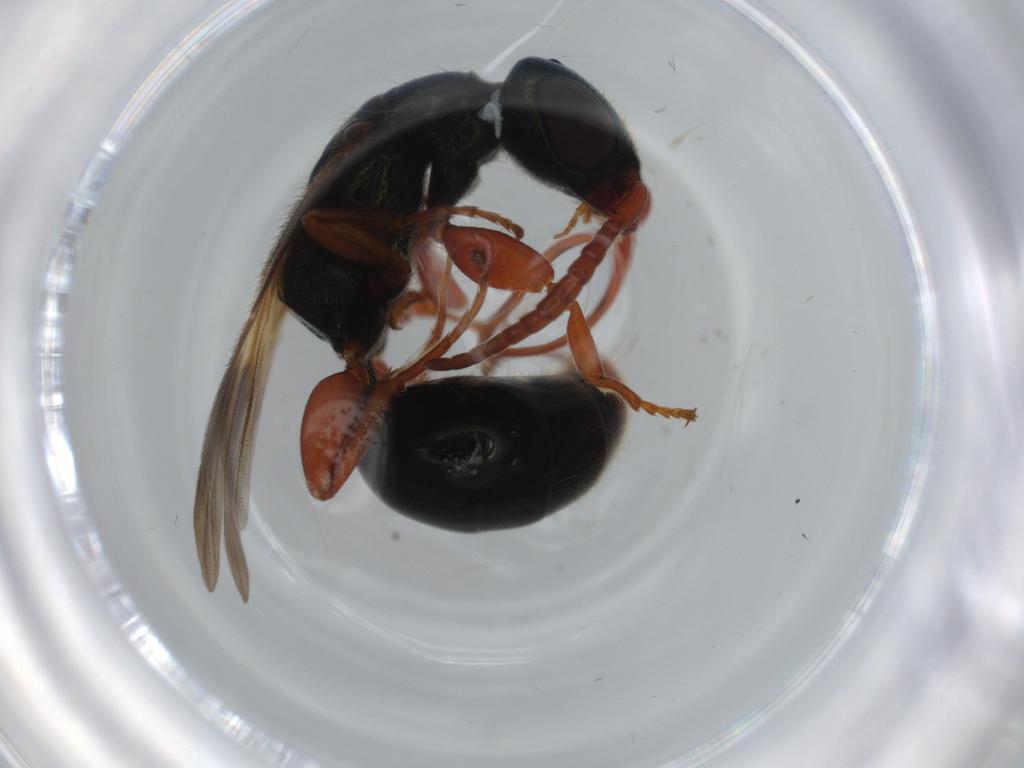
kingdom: Animalia
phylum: Arthropoda
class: Insecta
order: Hymenoptera
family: Bethylidae
